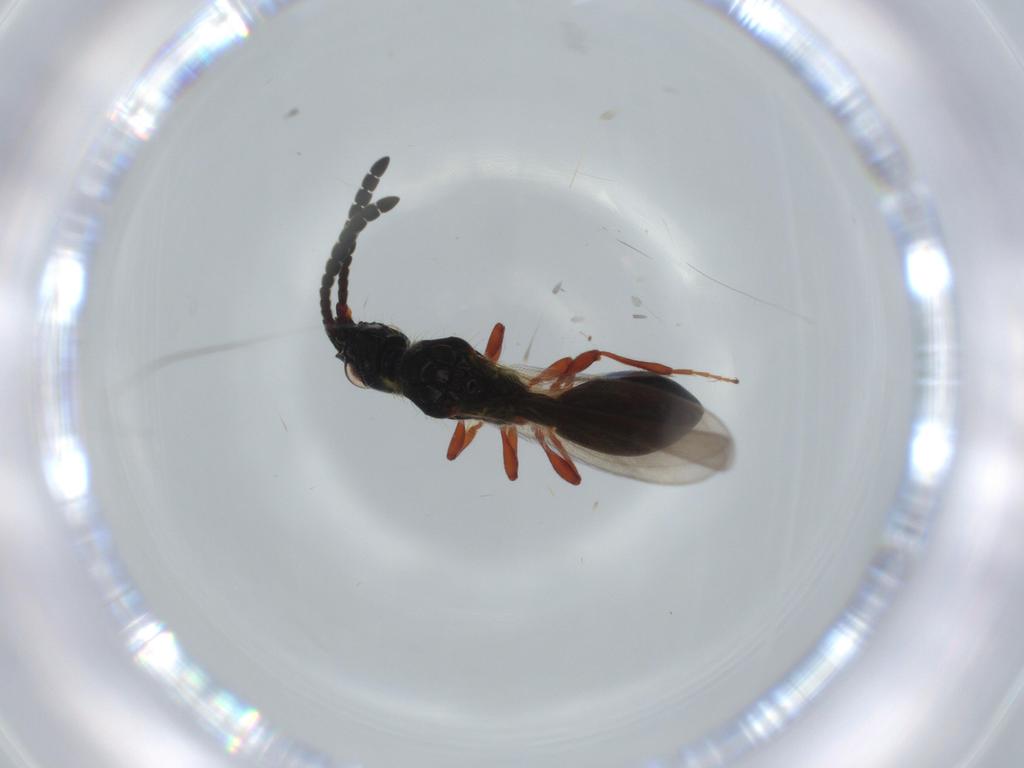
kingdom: Animalia
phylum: Arthropoda
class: Insecta
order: Hymenoptera
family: Diapriidae
